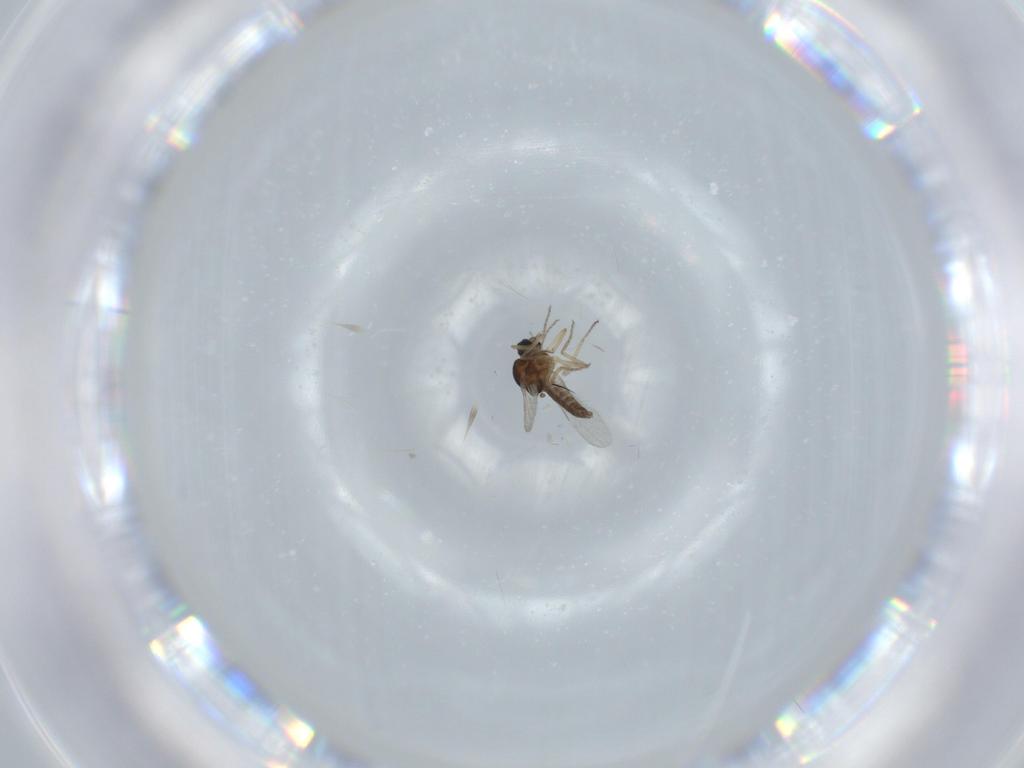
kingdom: Animalia
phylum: Arthropoda
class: Insecta
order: Diptera
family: Ceratopogonidae
